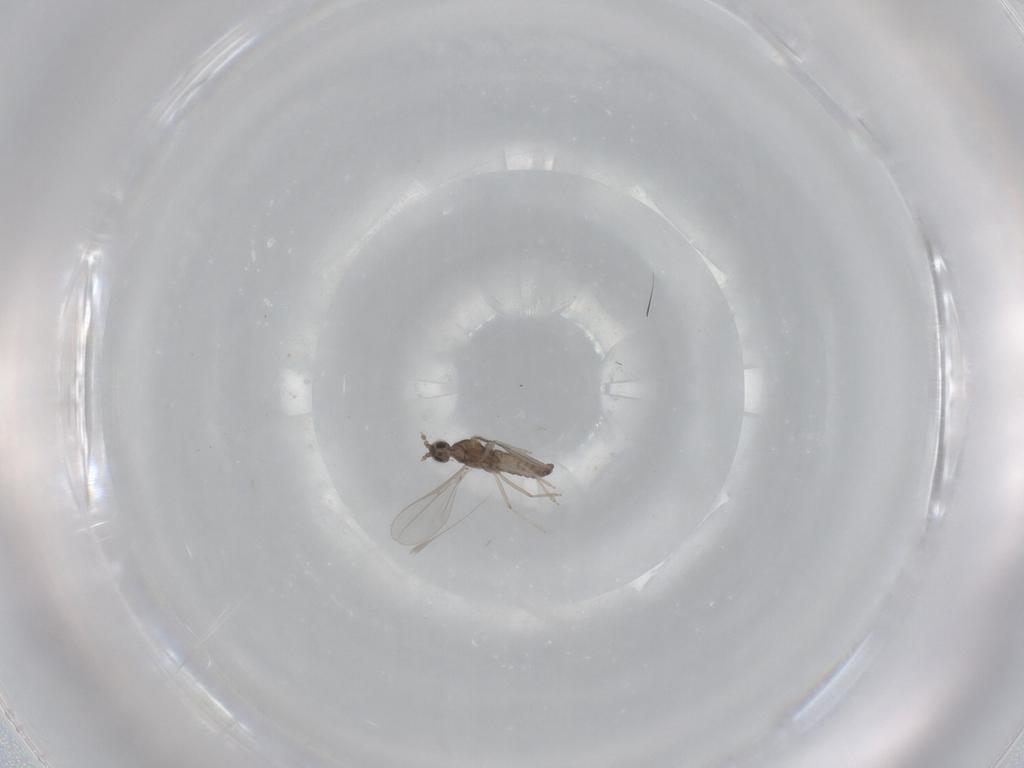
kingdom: Animalia
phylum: Arthropoda
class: Insecta
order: Diptera
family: Cecidomyiidae
